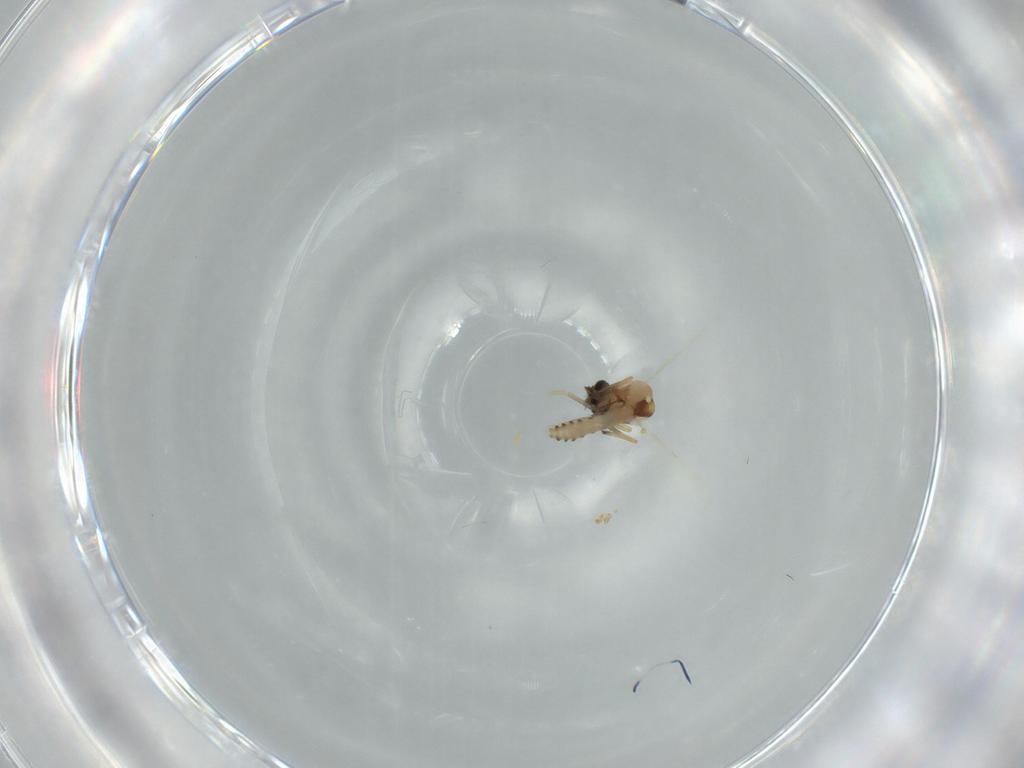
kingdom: Animalia
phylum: Arthropoda
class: Insecta
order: Diptera
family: Ceratopogonidae
